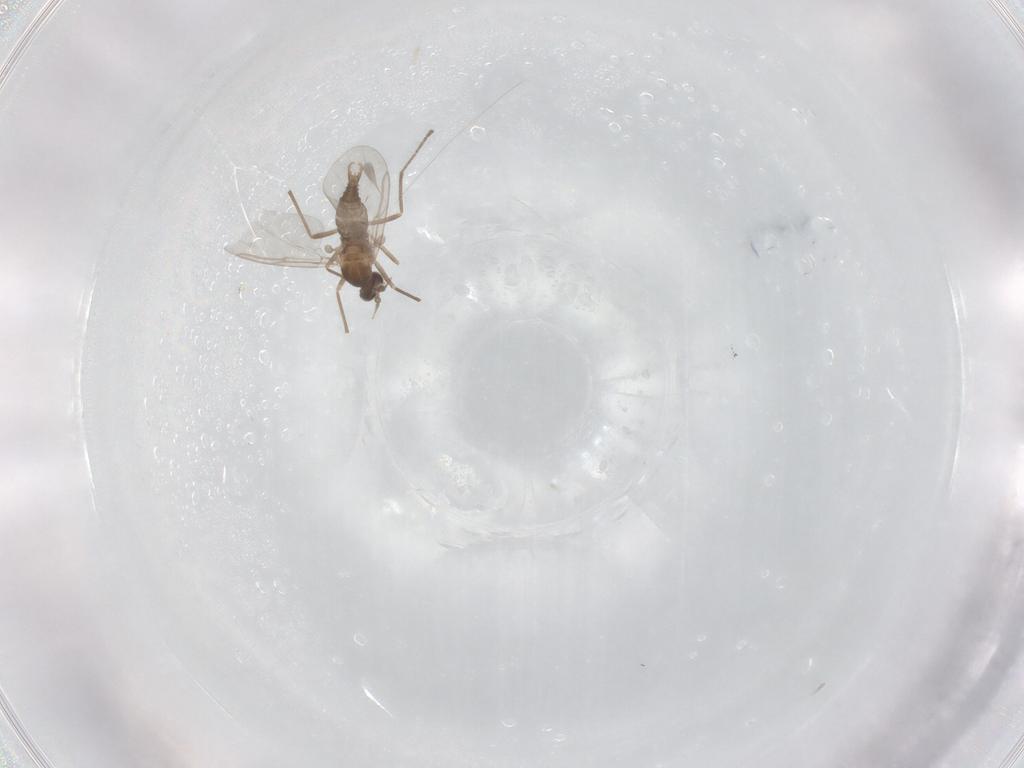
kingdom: Animalia
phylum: Arthropoda
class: Insecta
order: Diptera
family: Cecidomyiidae
